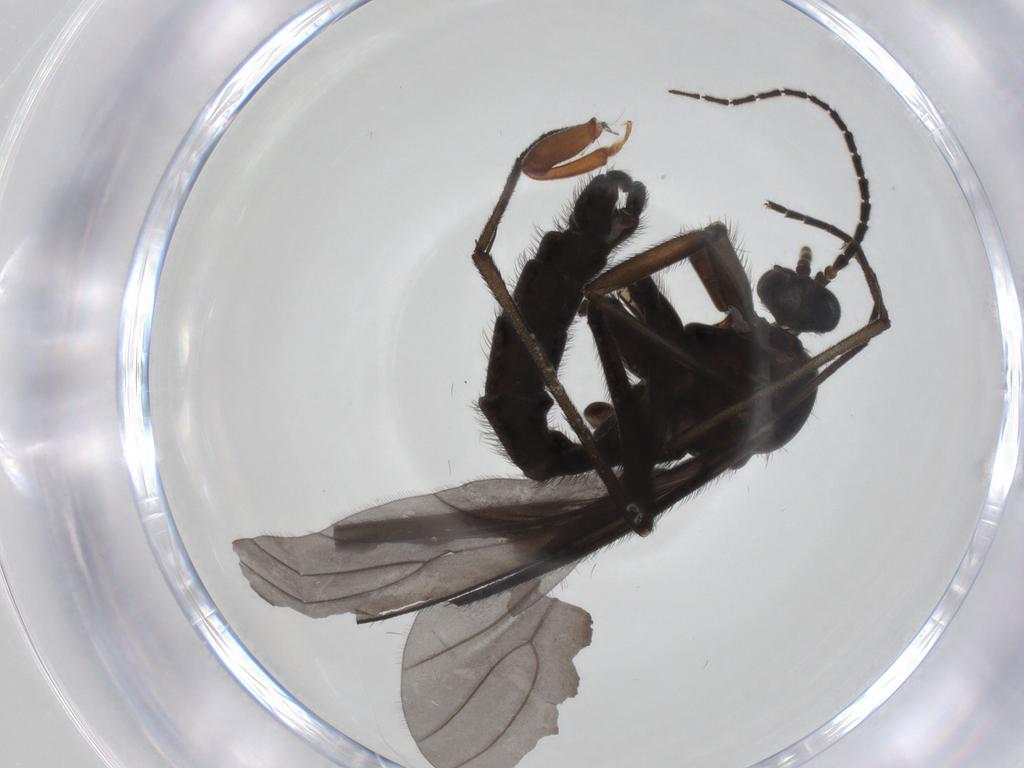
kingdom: Animalia
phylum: Arthropoda
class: Insecta
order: Diptera
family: Sciaridae
